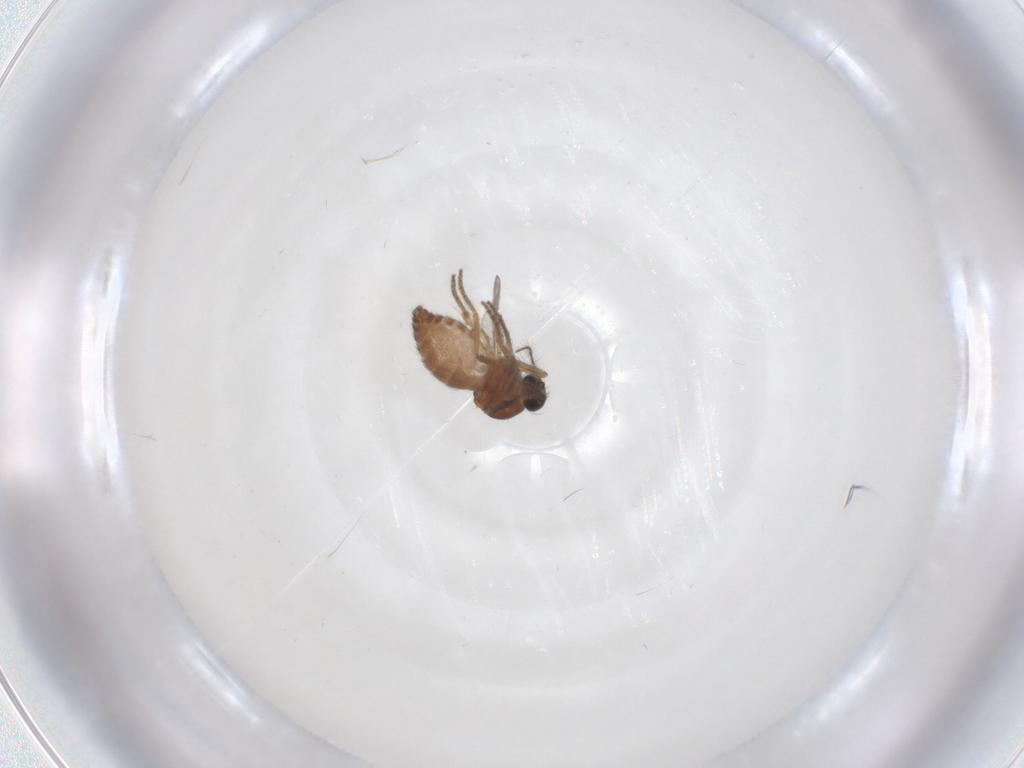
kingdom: Animalia
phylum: Arthropoda
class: Insecta
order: Diptera
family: Ceratopogonidae
